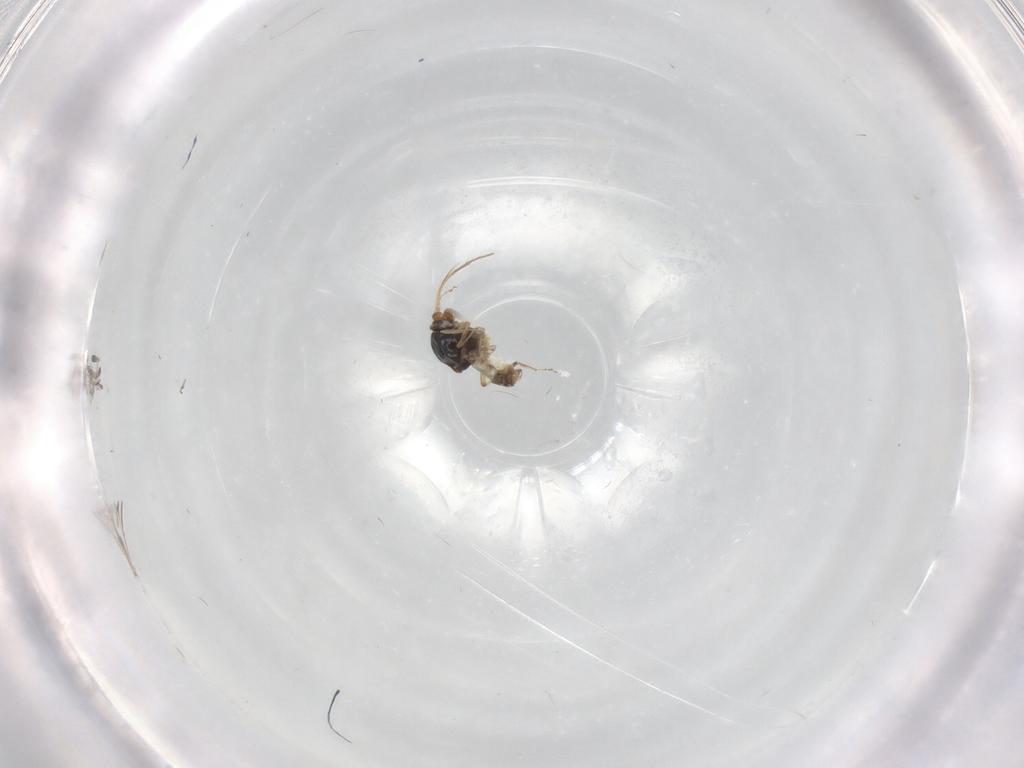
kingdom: Animalia
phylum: Arthropoda
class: Insecta
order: Diptera
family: Ceratopogonidae
